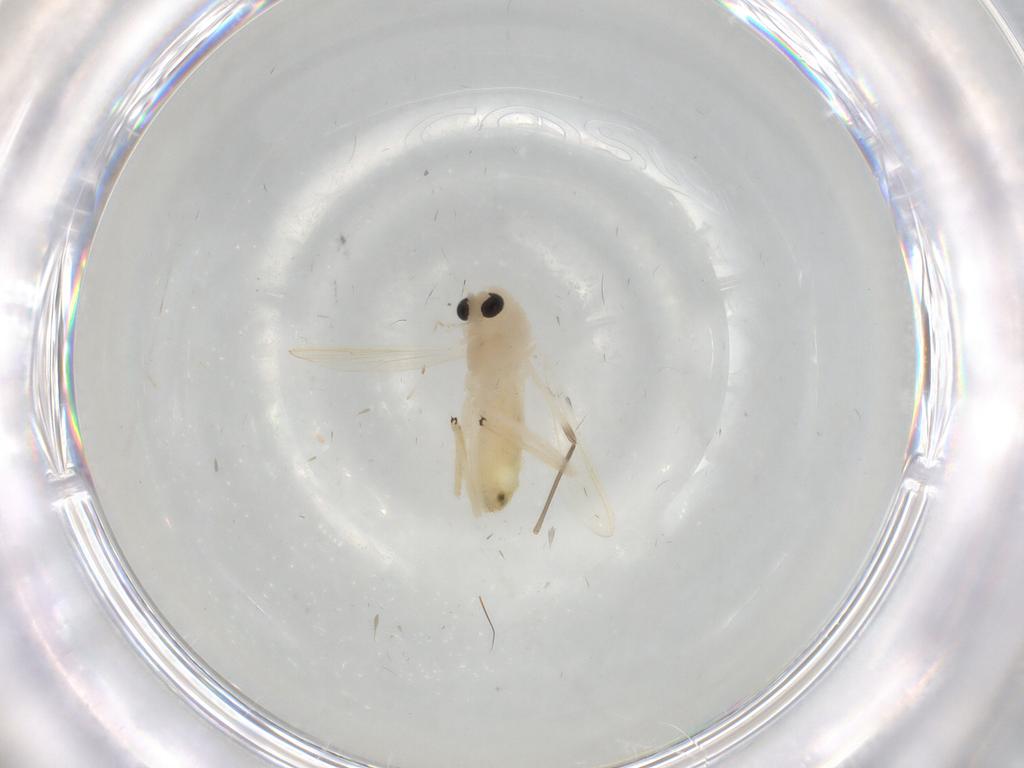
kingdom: Animalia
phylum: Arthropoda
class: Insecta
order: Diptera
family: Chironomidae
